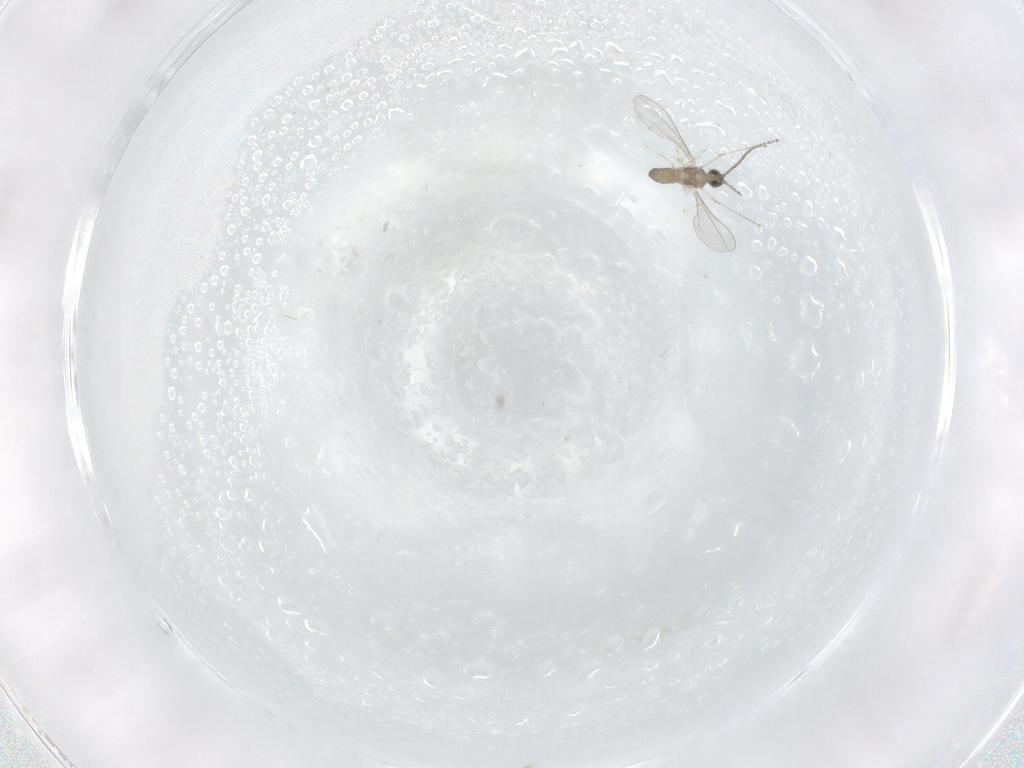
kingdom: Animalia
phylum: Arthropoda
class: Insecta
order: Diptera
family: Cecidomyiidae
